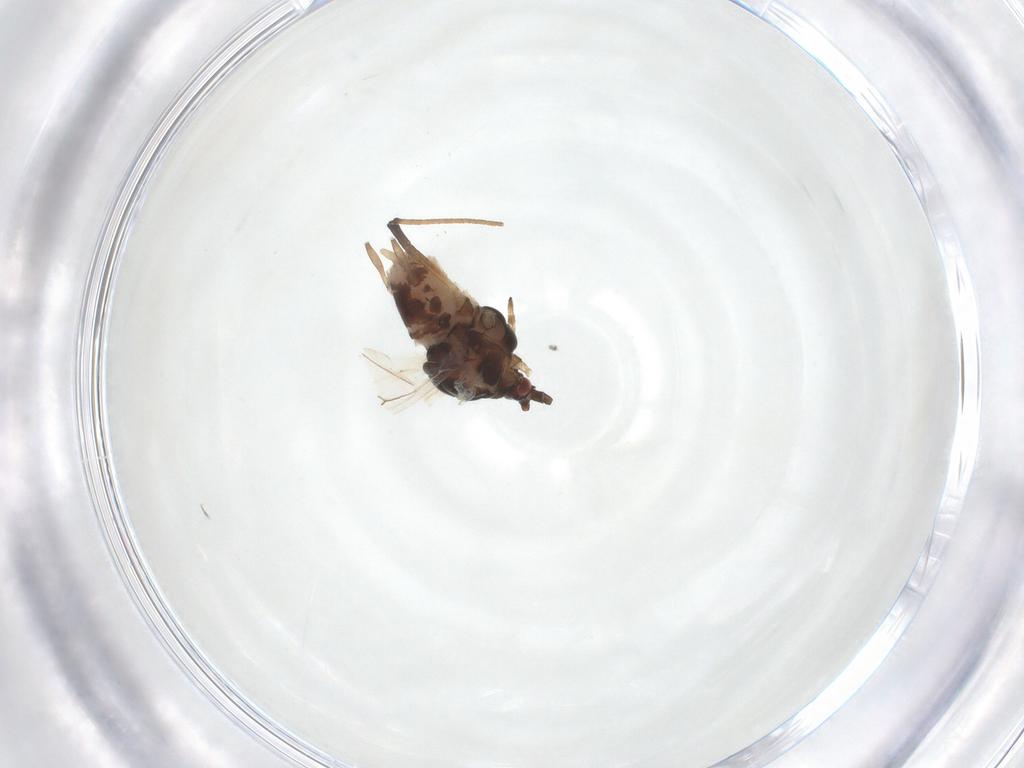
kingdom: Animalia
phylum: Arthropoda
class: Insecta
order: Hemiptera
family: Aphididae
